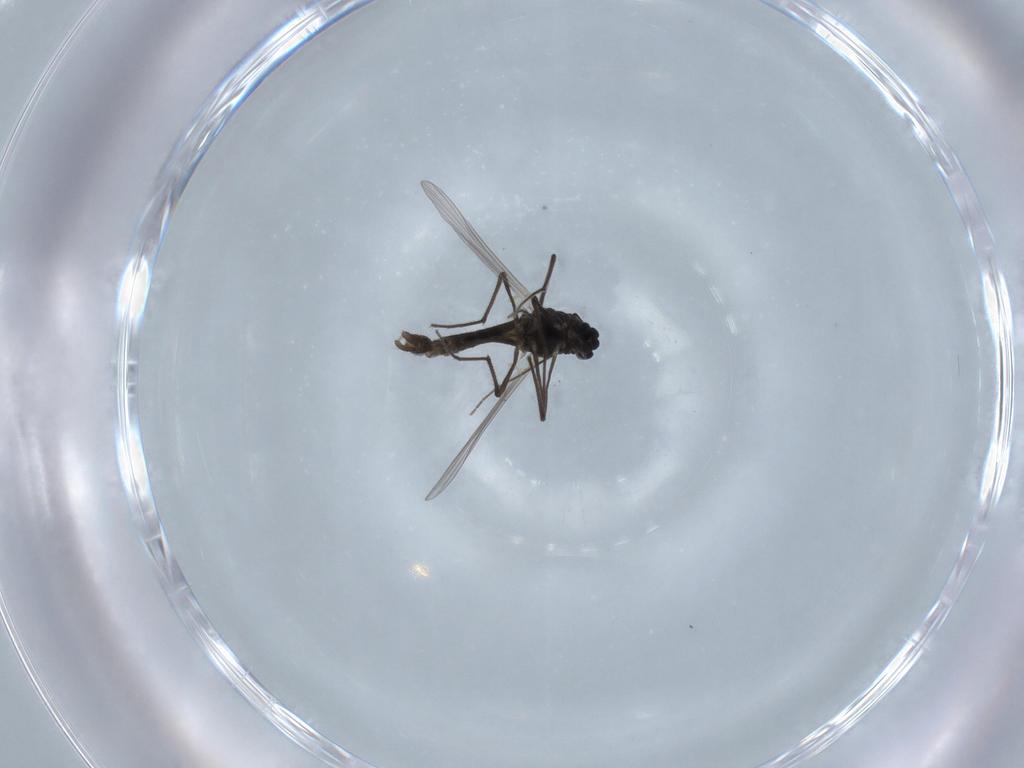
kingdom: Animalia
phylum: Arthropoda
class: Insecta
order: Diptera
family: Chironomidae
